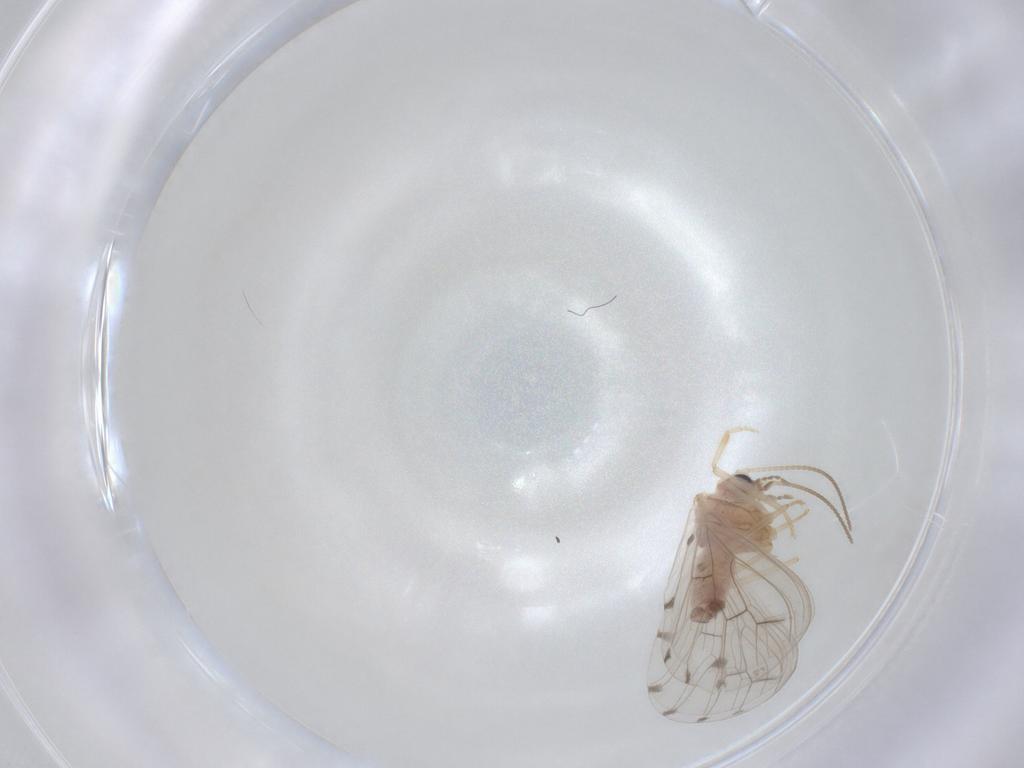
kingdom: Animalia
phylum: Arthropoda
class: Insecta
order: Neuroptera
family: Coniopterygidae
